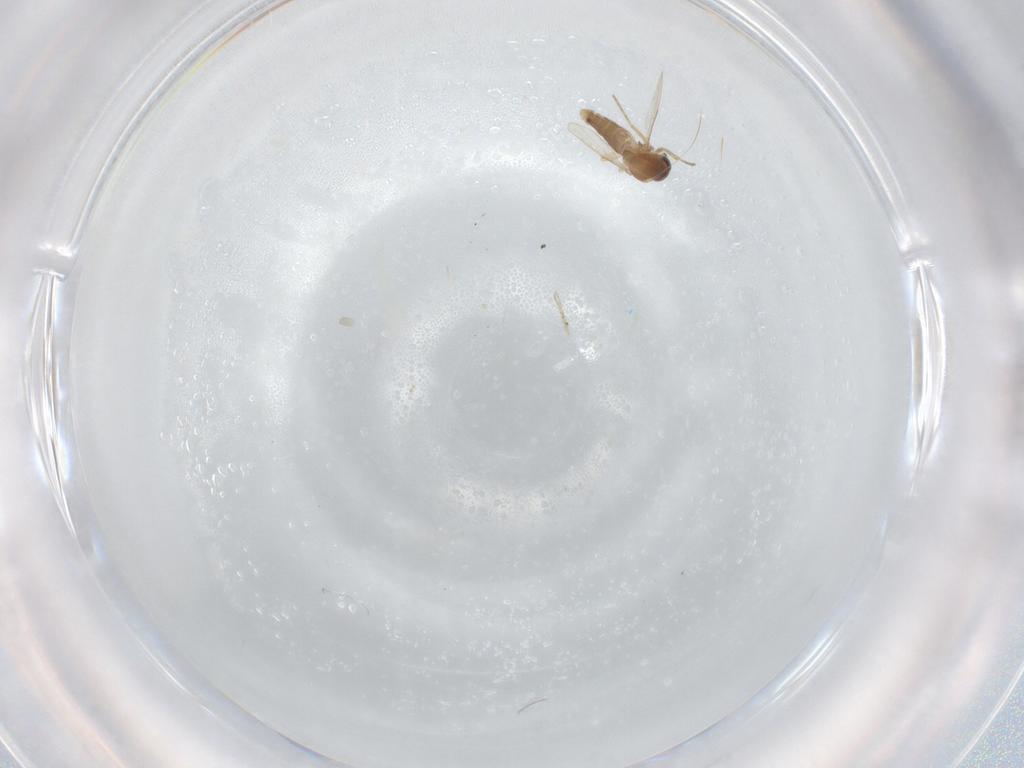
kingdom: Animalia
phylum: Arthropoda
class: Insecta
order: Diptera
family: Ceratopogonidae
